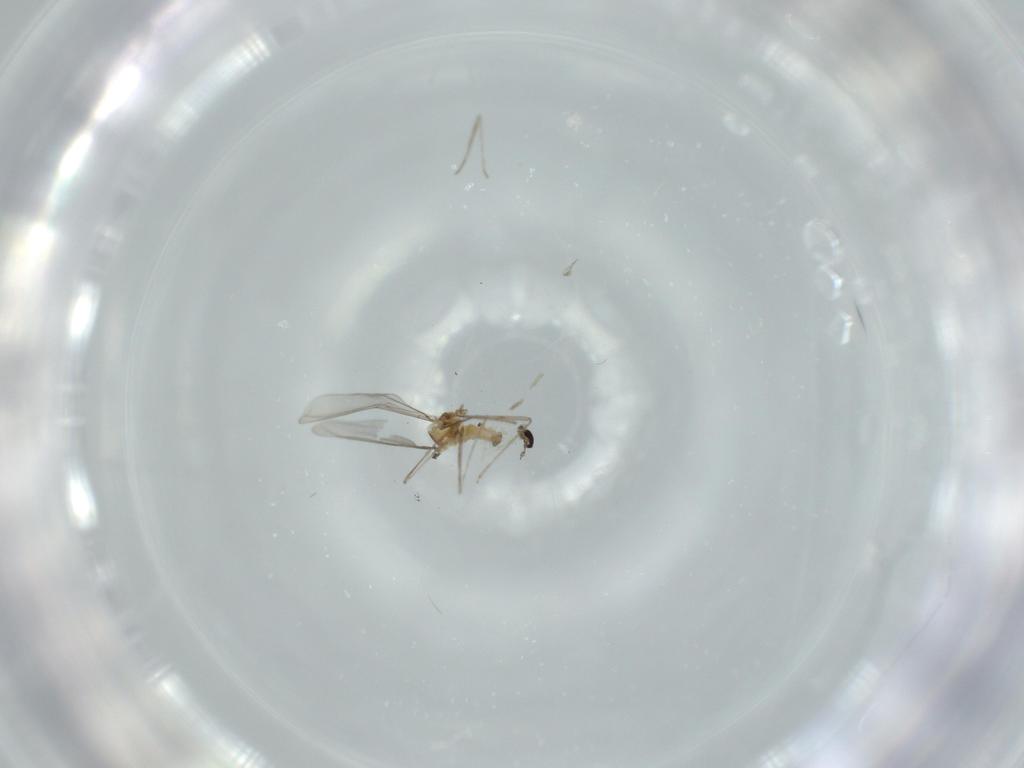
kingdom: Animalia
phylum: Arthropoda
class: Insecta
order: Diptera
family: Cecidomyiidae
